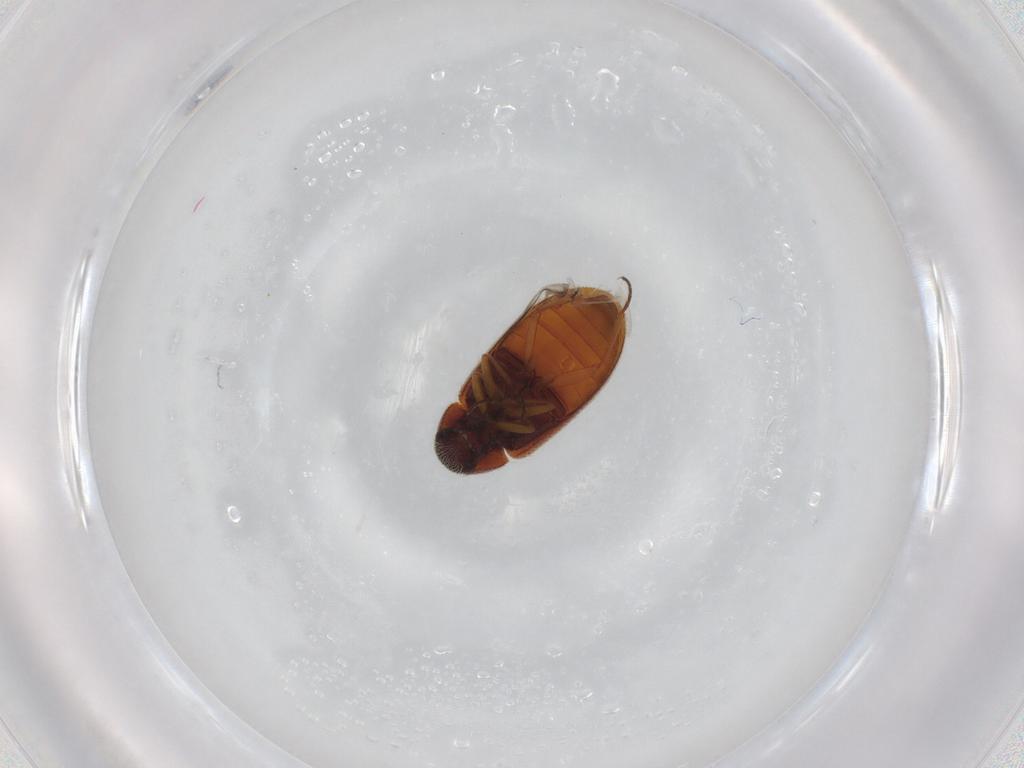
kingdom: Animalia
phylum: Arthropoda
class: Insecta
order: Coleoptera
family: Rhadalidae
